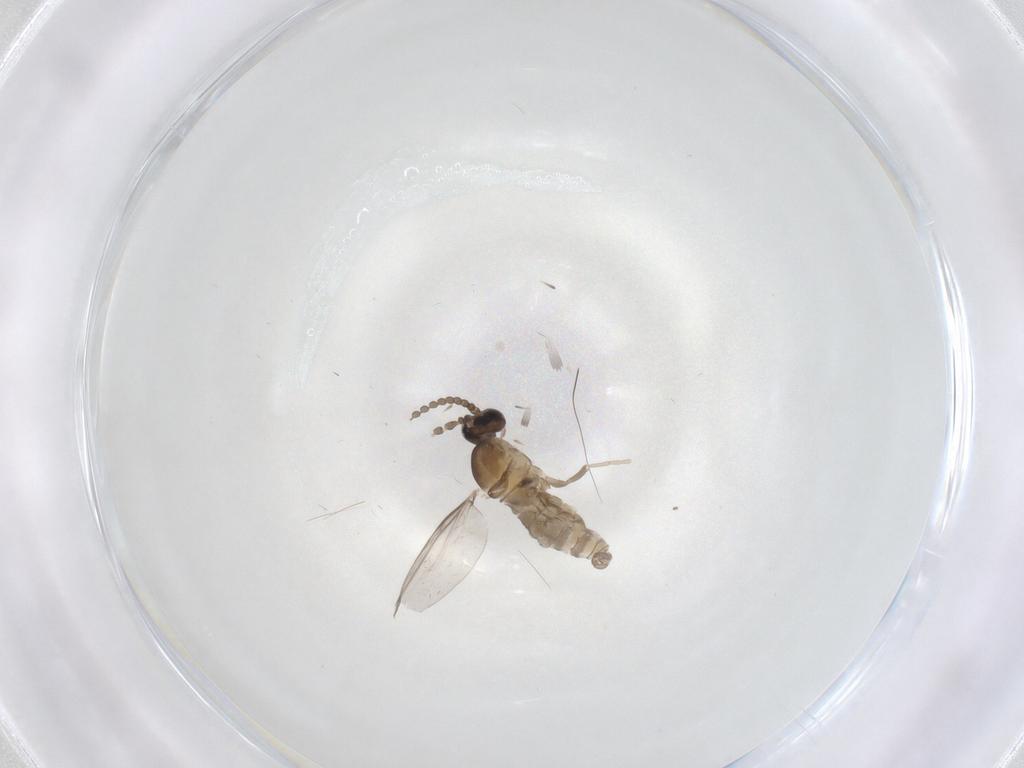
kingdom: Animalia
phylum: Arthropoda
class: Insecta
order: Diptera
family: Cecidomyiidae
